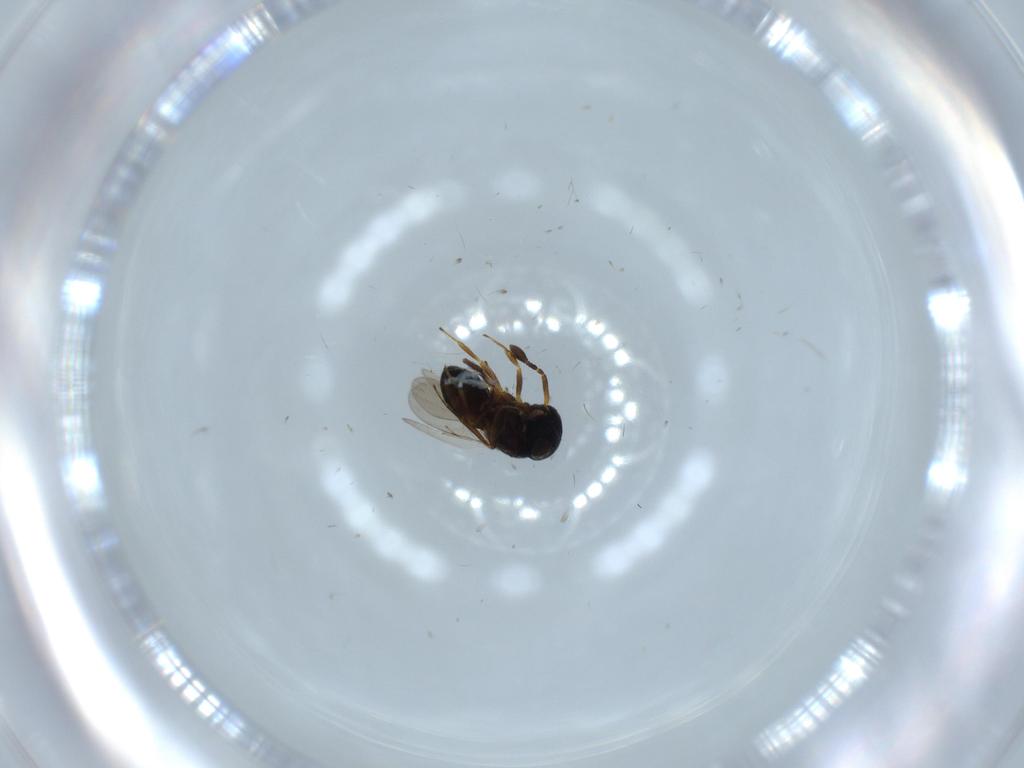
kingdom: Animalia
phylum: Arthropoda
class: Insecta
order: Hymenoptera
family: Scelionidae
